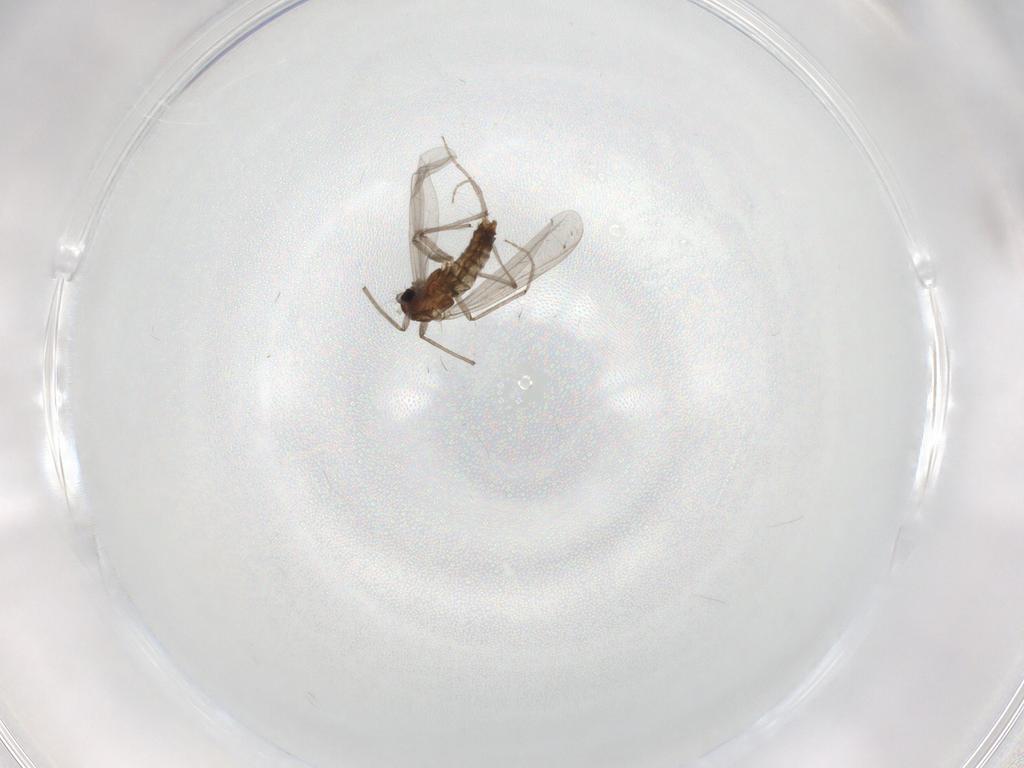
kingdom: Animalia
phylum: Arthropoda
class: Insecta
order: Diptera
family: Chironomidae
